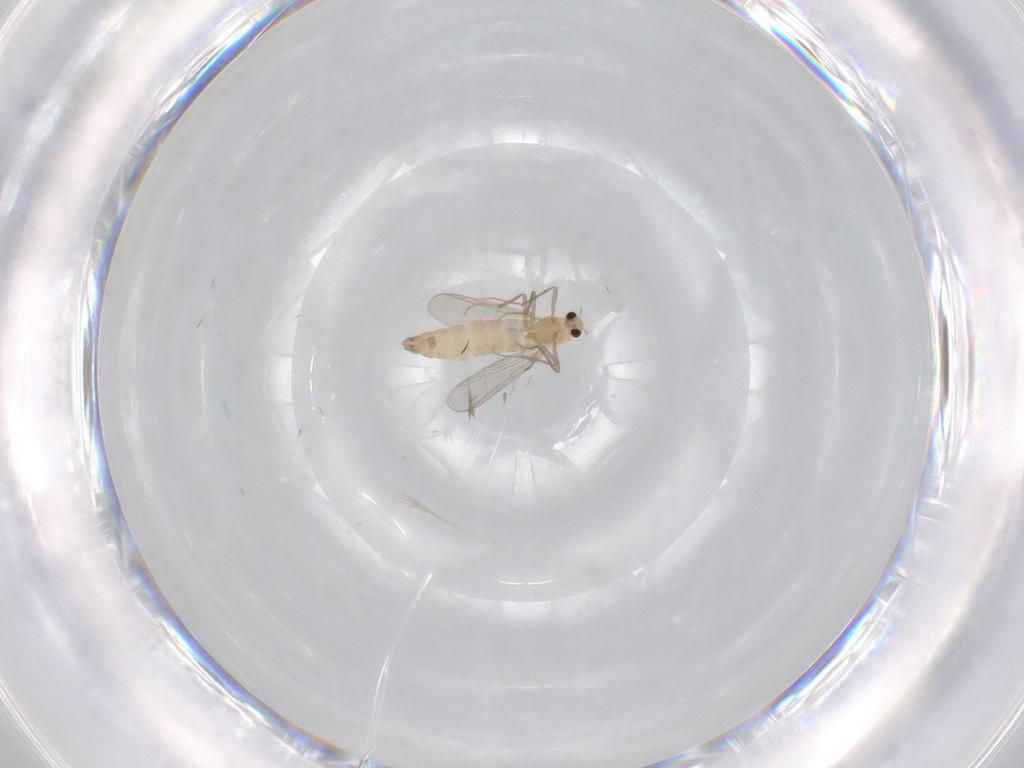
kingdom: Animalia
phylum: Arthropoda
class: Insecta
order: Diptera
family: Chironomidae
